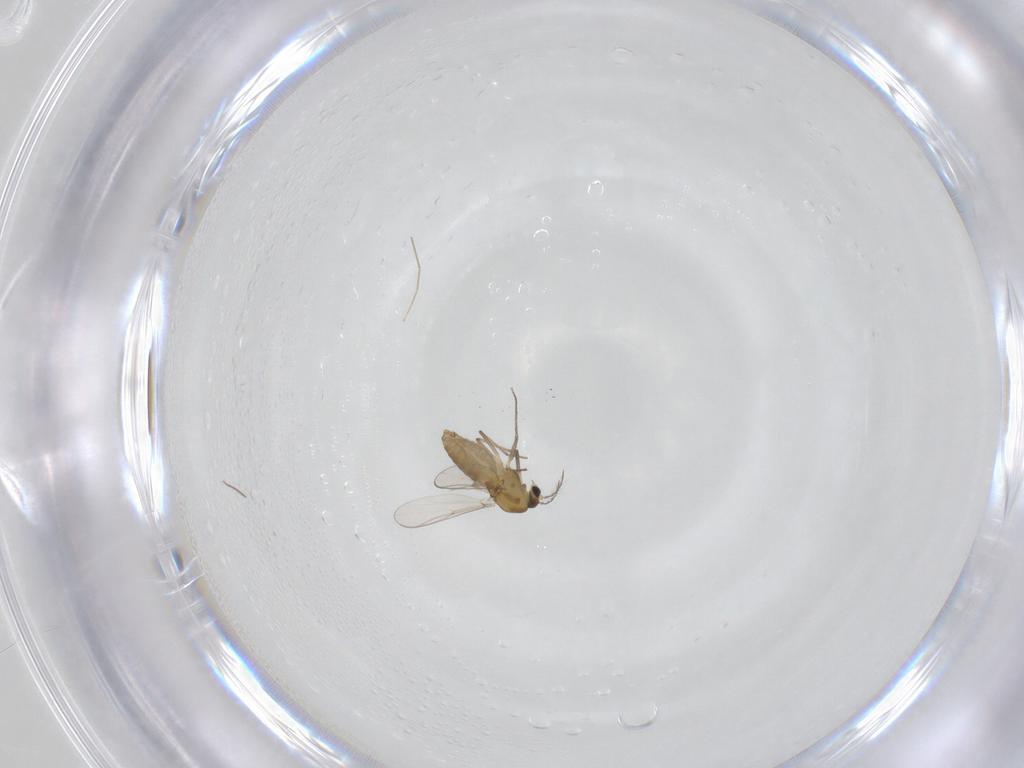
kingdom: Animalia
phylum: Arthropoda
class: Insecta
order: Diptera
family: Chironomidae
